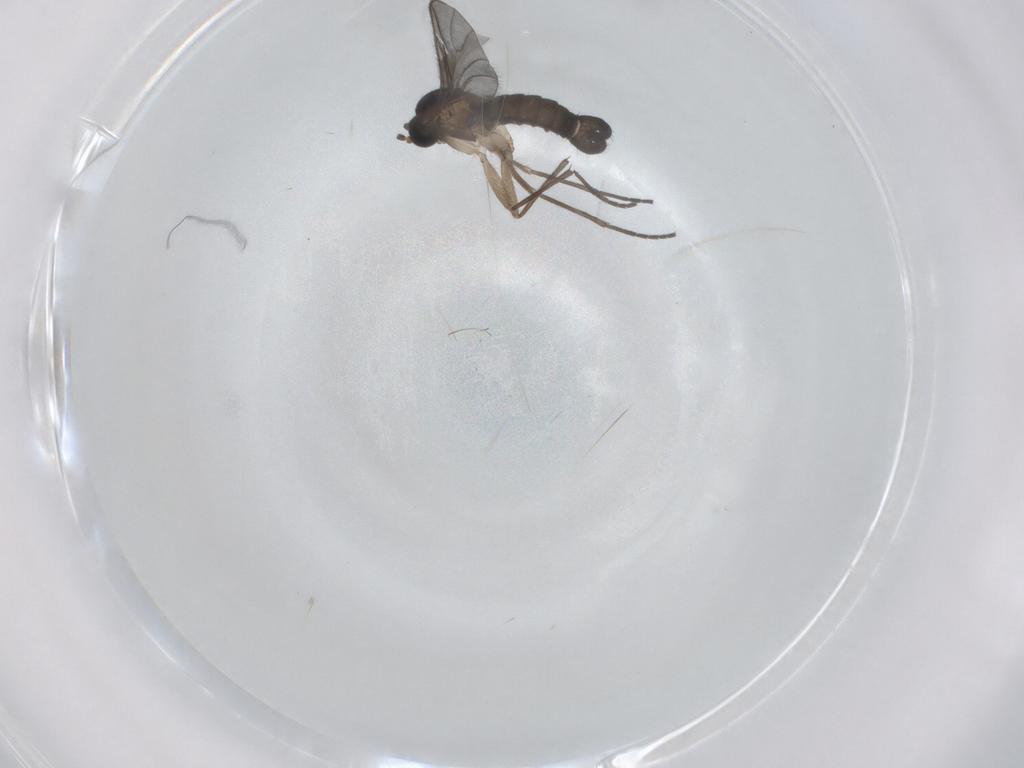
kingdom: Animalia
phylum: Arthropoda
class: Insecta
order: Diptera
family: Sciaridae
